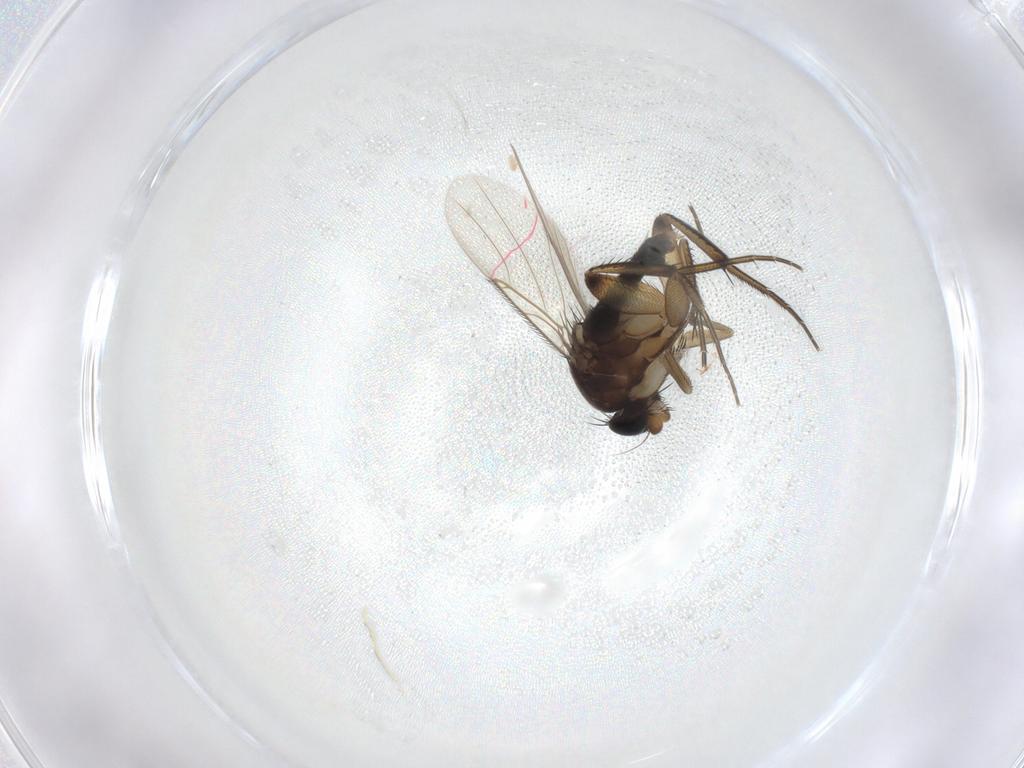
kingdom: Animalia
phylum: Arthropoda
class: Insecta
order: Diptera
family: Phoridae
